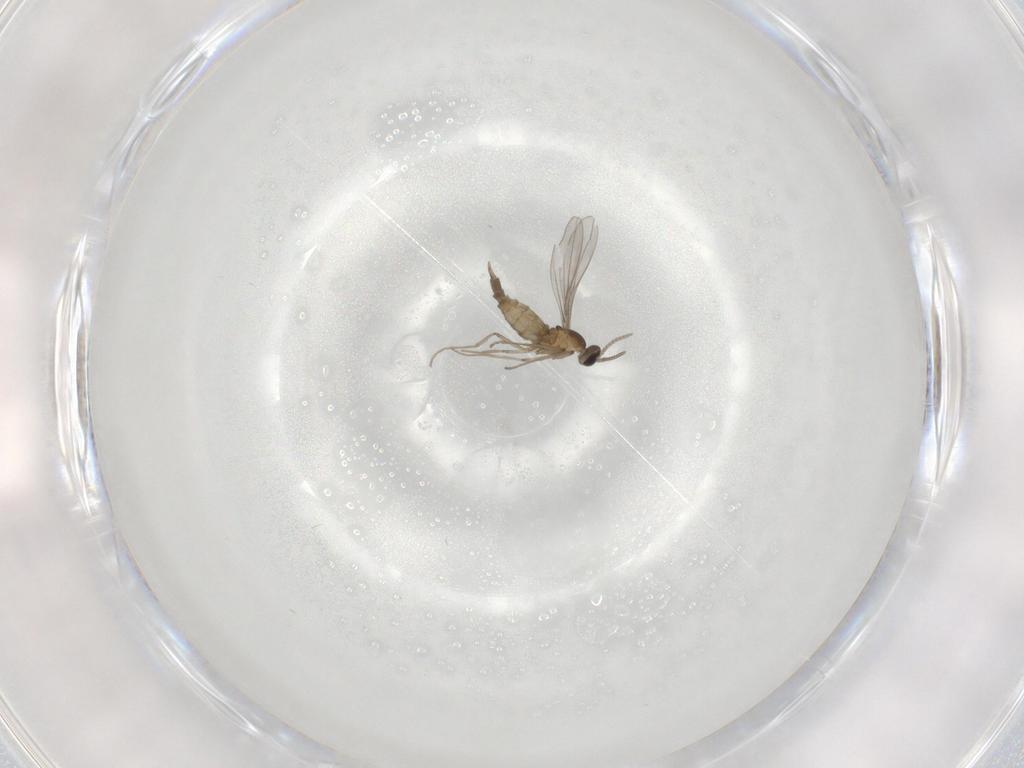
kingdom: Animalia
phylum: Arthropoda
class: Insecta
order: Diptera
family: Cecidomyiidae
